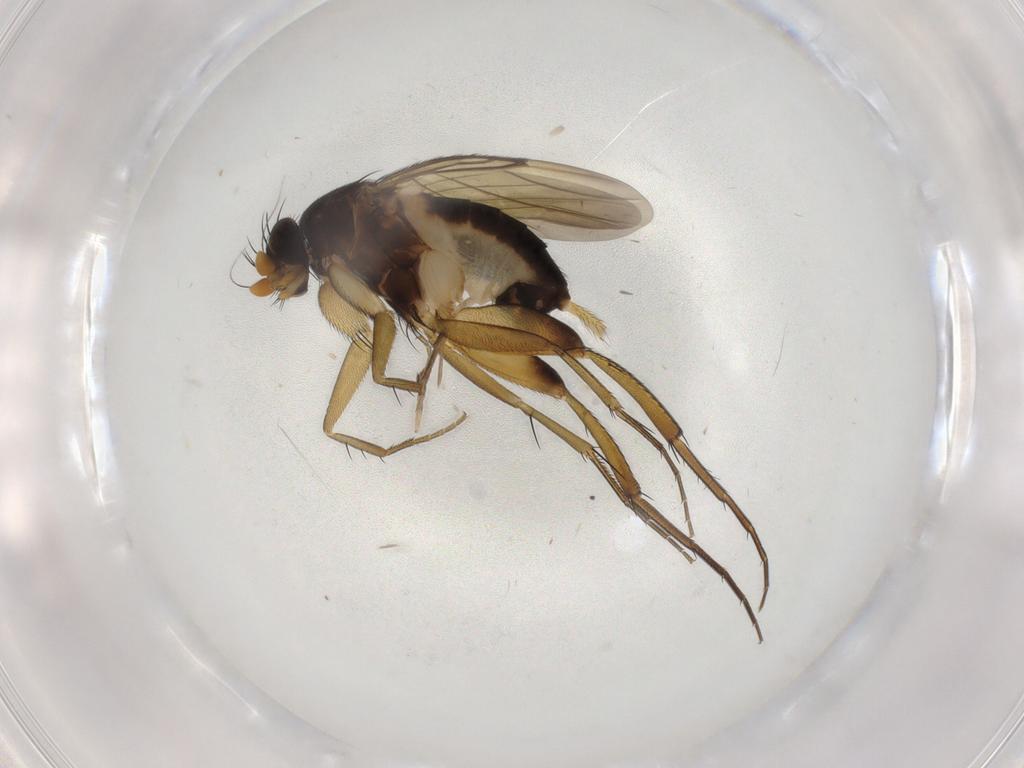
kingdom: Animalia
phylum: Arthropoda
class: Insecta
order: Diptera
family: Phoridae
